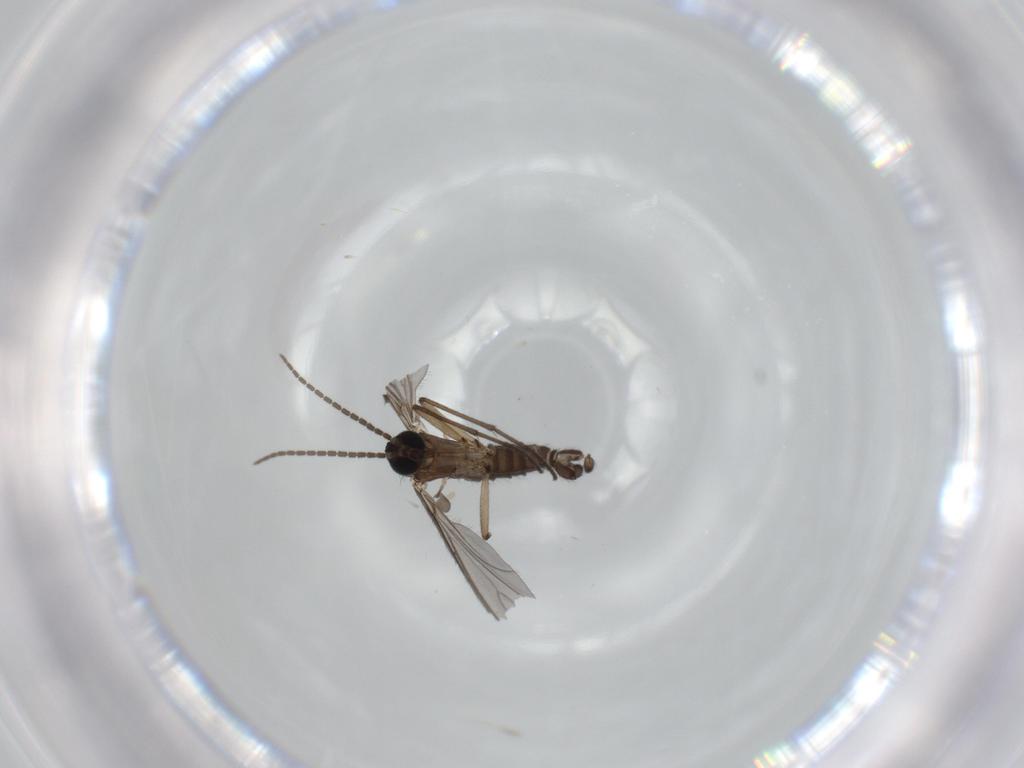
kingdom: Animalia
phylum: Arthropoda
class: Insecta
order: Diptera
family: Sciaridae
